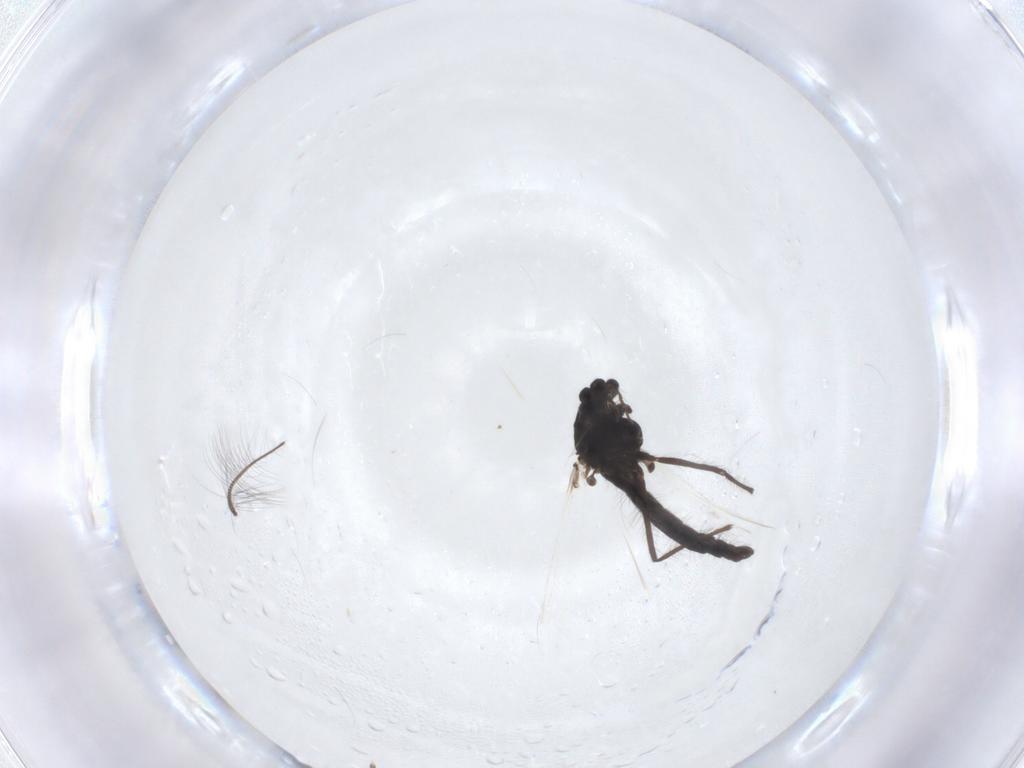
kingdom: Animalia
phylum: Arthropoda
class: Insecta
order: Diptera
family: Chironomidae
